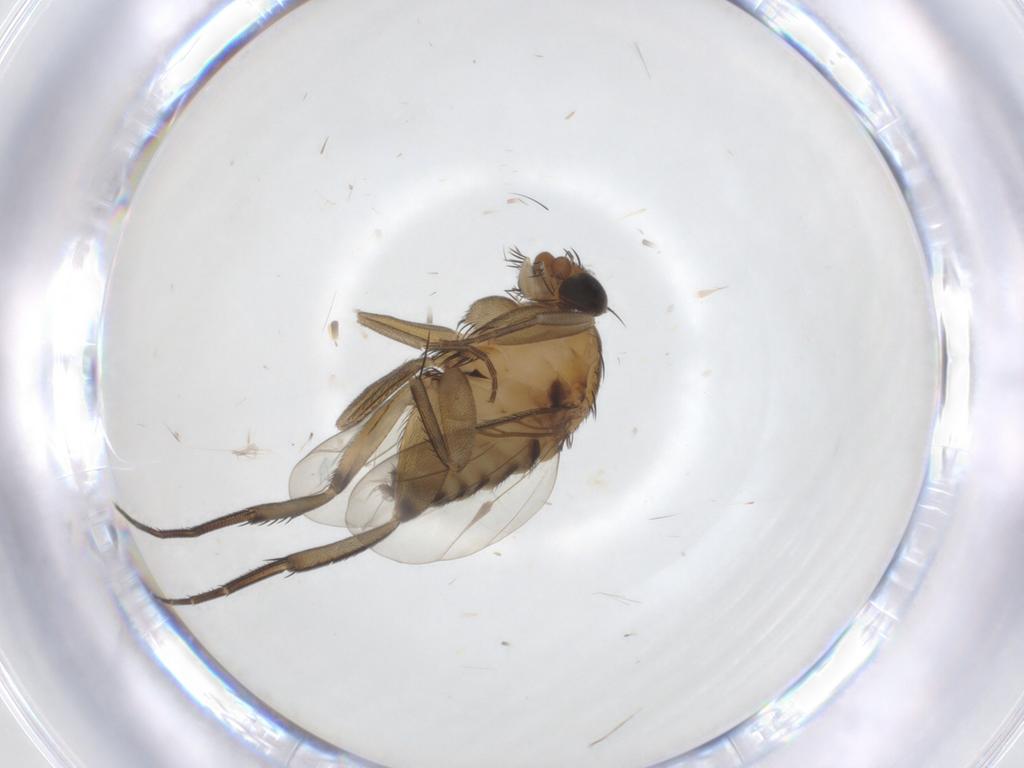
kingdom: Animalia
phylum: Arthropoda
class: Insecta
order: Diptera
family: Phoridae
